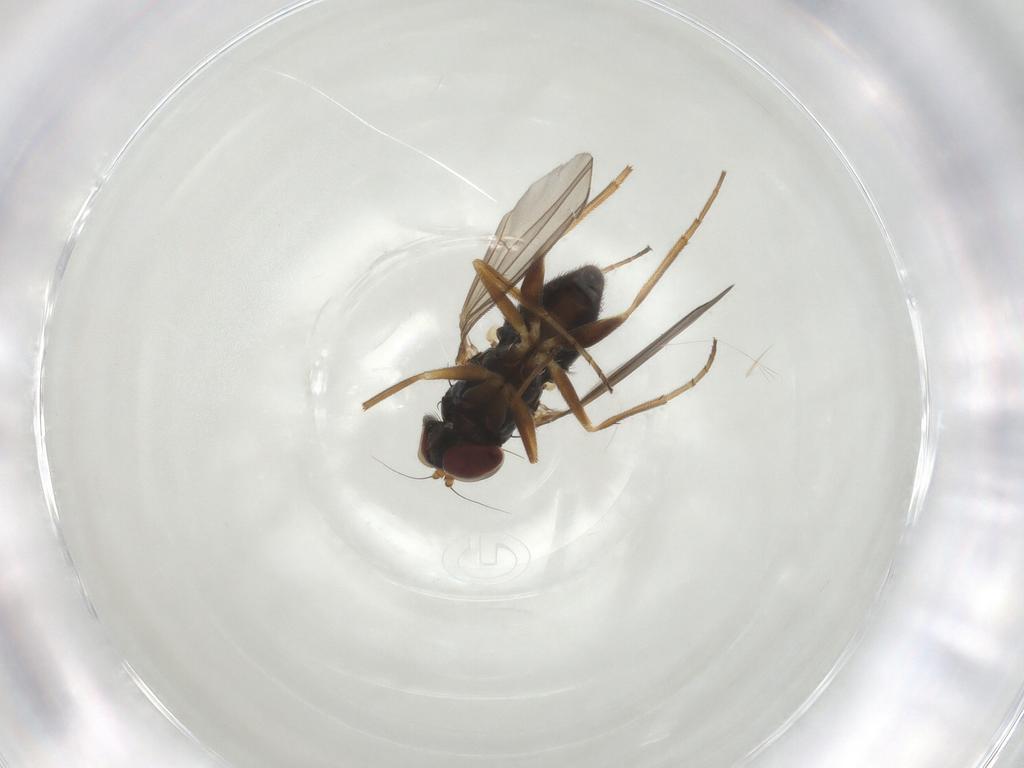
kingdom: Animalia
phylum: Arthropoda
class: Insecta
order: Diptera
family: Dolichopodidae
